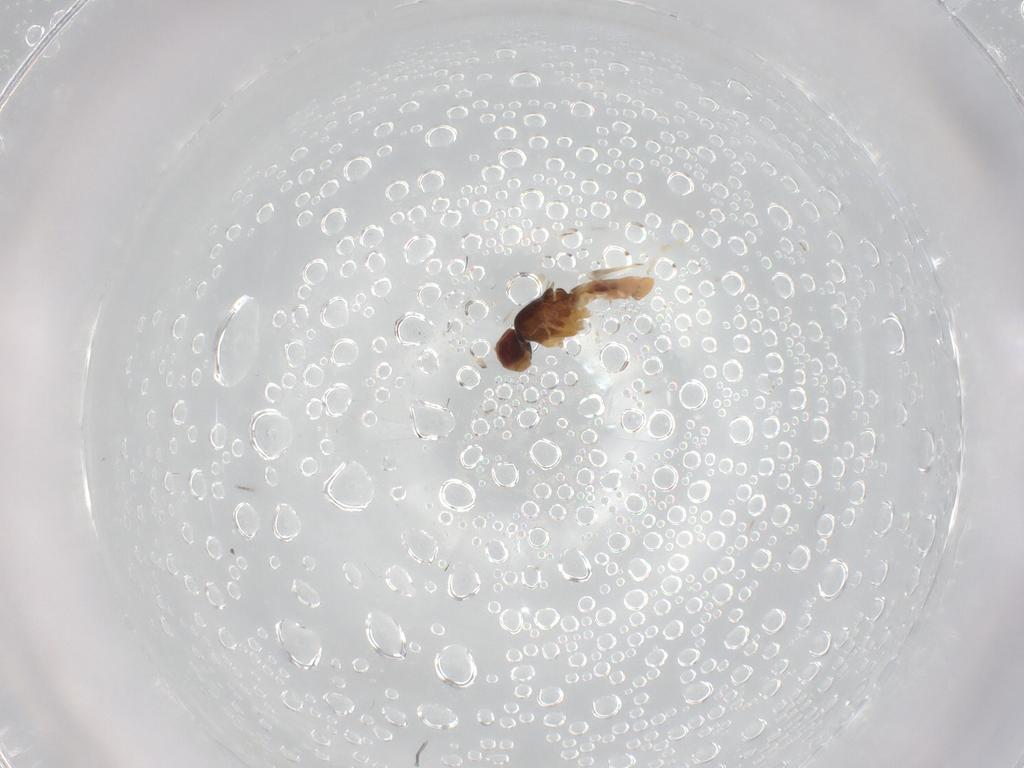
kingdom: Animalia
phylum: Arthropoda
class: Insecta
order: Diptera
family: Periscelididae
